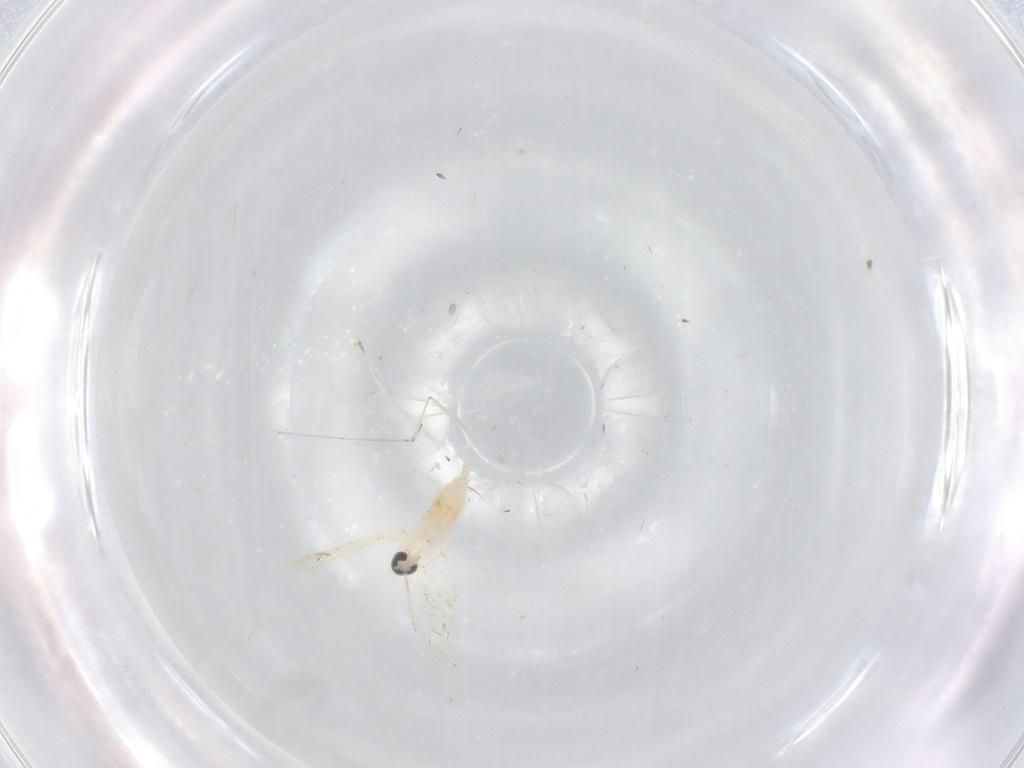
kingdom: Animalia
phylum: Arthropoda
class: Insecta
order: Diptera
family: Cecidomyiidae
